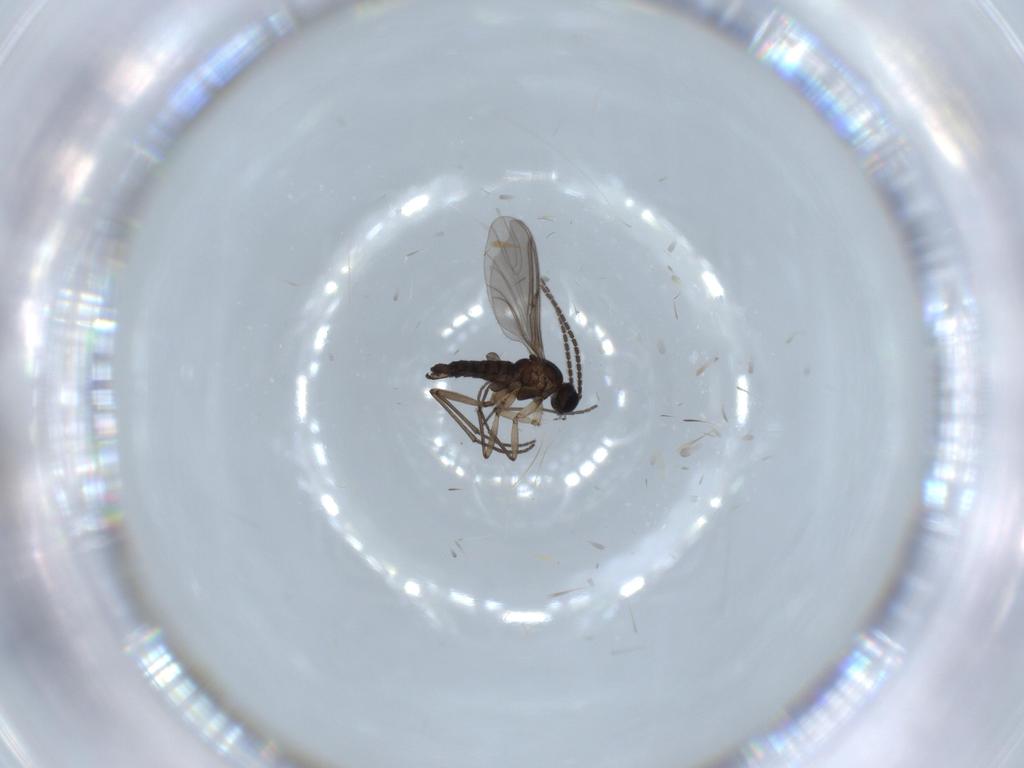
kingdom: Animalia
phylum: Arthropoda
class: Insecta
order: Diptera
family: Sciaridae
